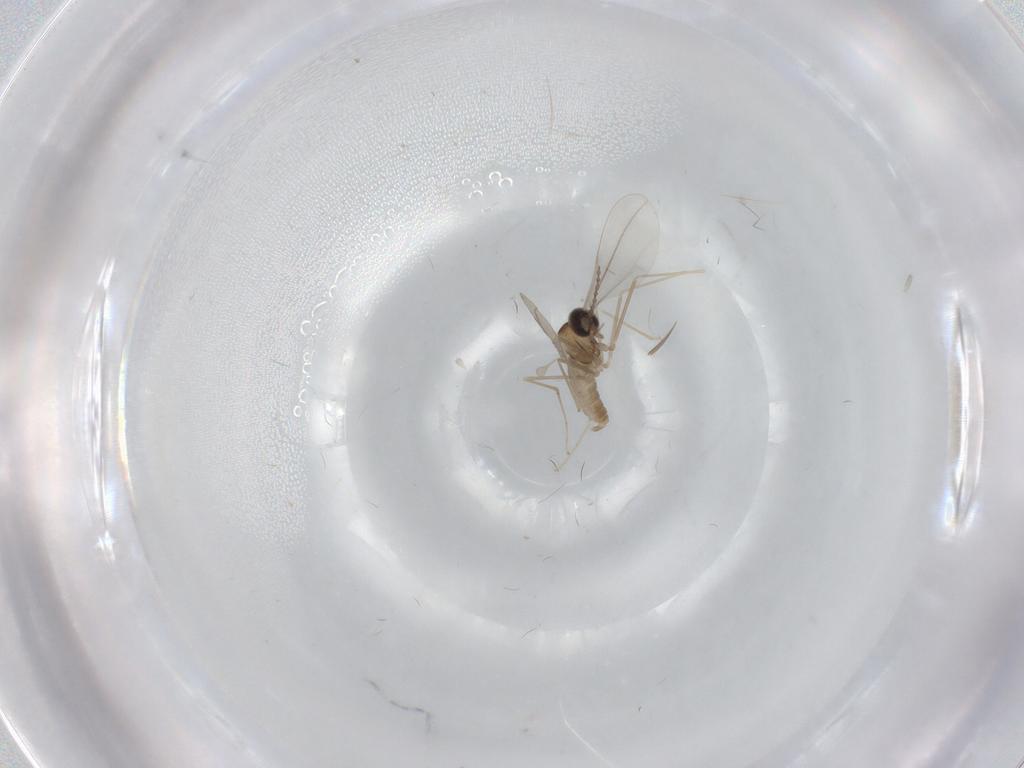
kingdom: Animalia
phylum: Arthropoda
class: Insecta
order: Diptera
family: Cecidomyiidae
